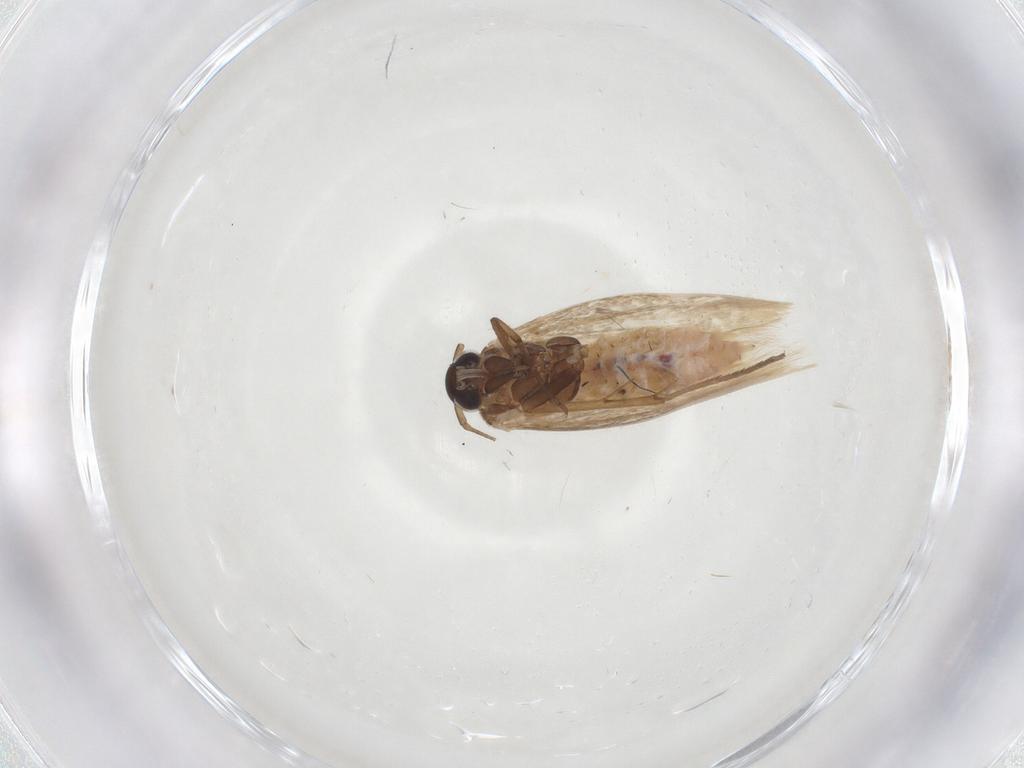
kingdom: Animalia
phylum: Arthropoda
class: Insecta
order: Lepidoptera
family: Scythrididae
